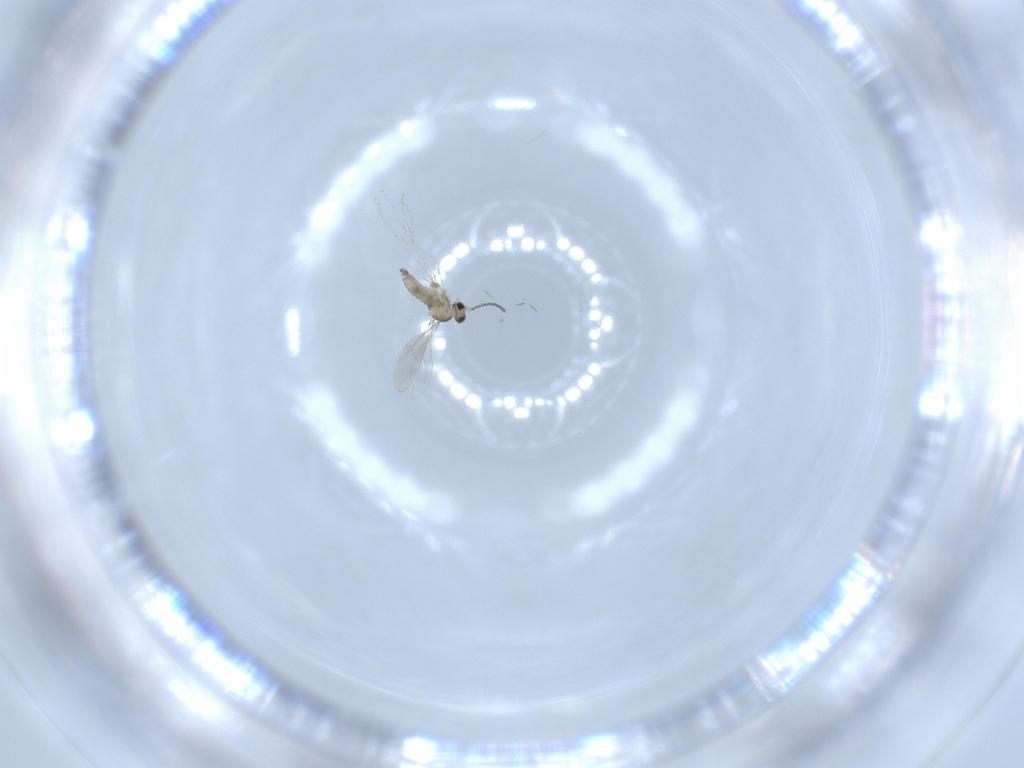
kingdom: Animalia
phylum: Arthropoda
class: Insecta
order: Diptera
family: Cecidomyiidae
